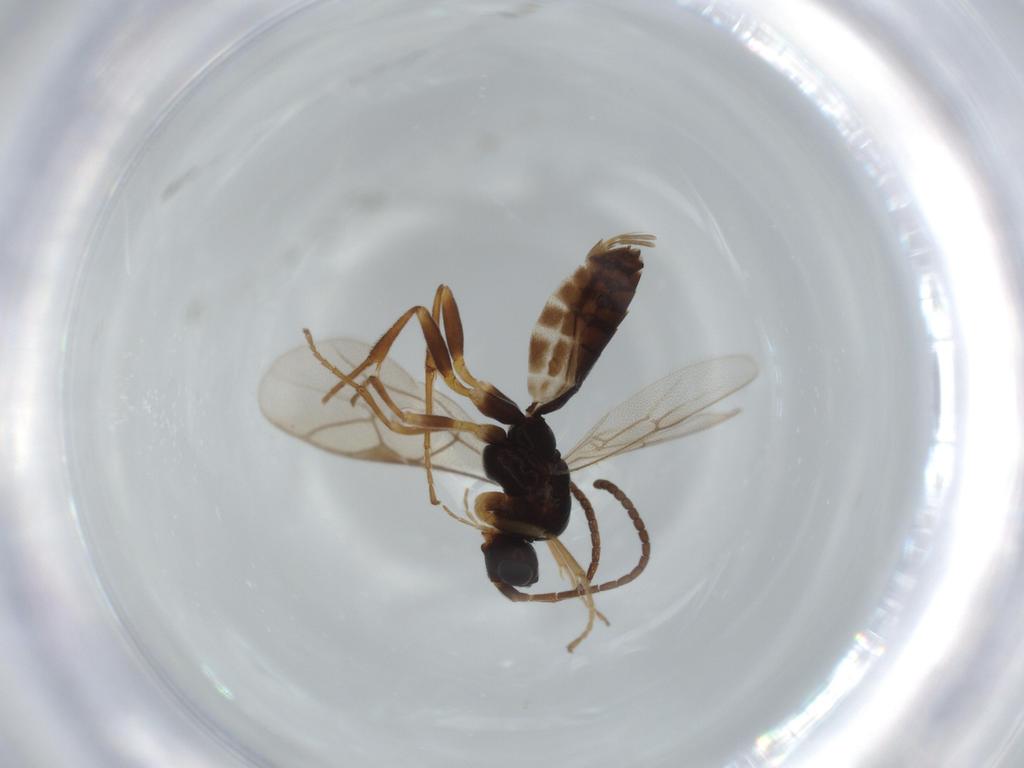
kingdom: Animalia
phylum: Arthropoda
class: Insecta
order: Hymenoptera
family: Ichneumonidae
